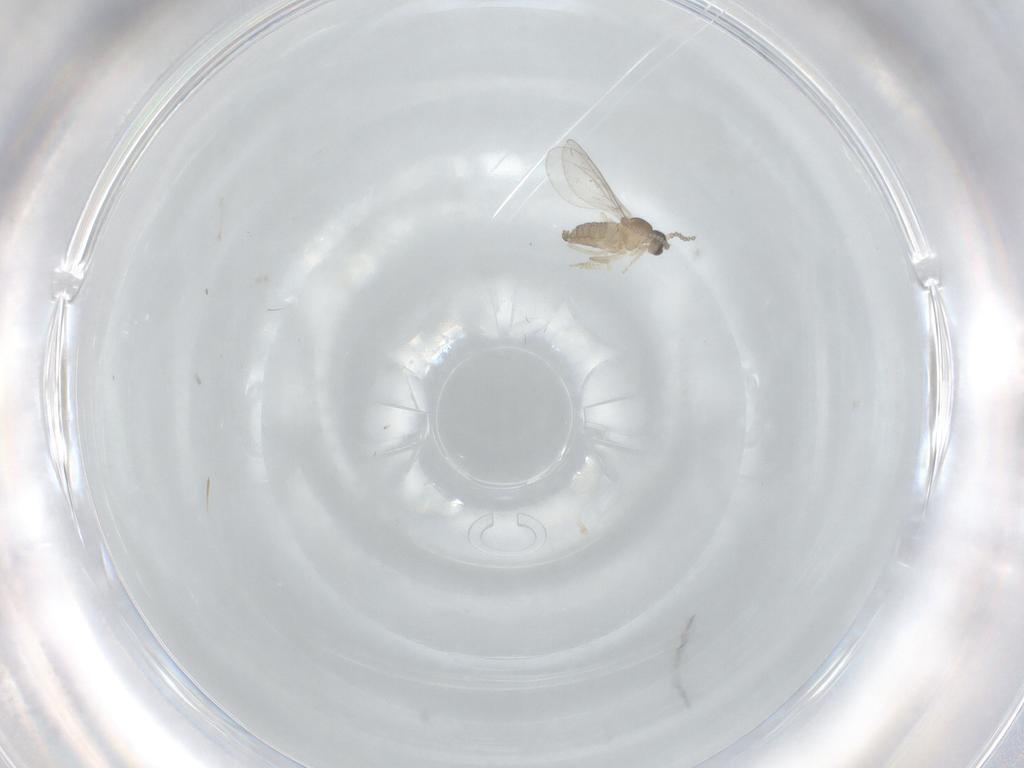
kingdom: Animalia
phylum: Arthropoda
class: Insecta
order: Diptera
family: Cecidomyiidae
